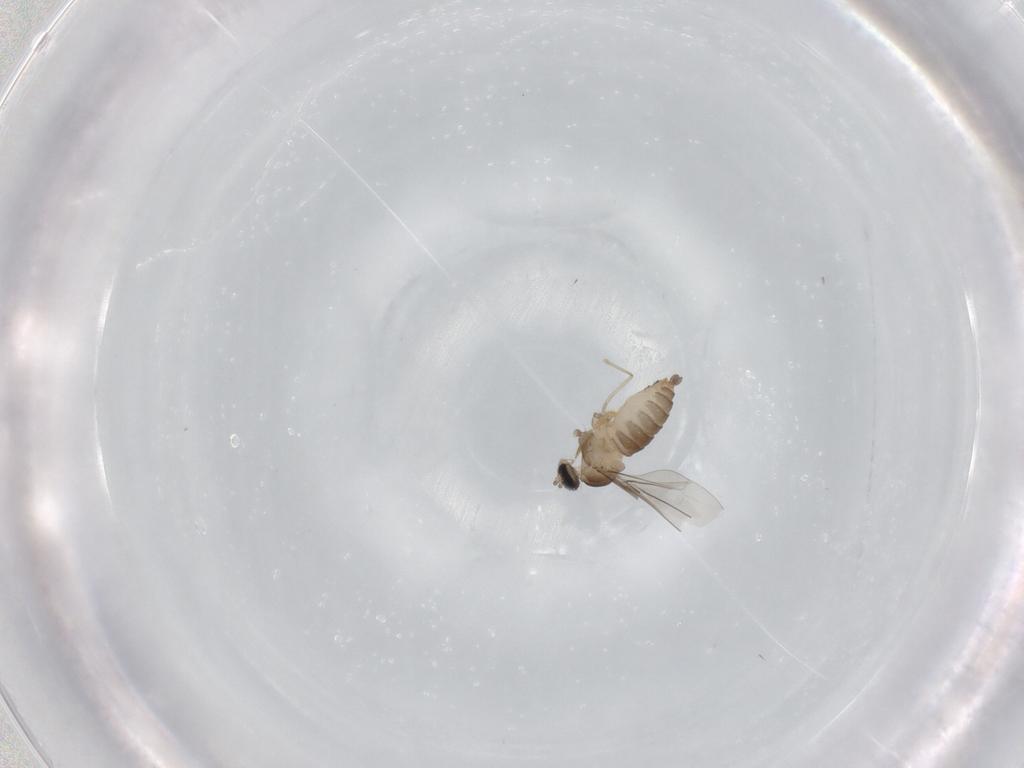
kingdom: Animalia
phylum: Arthropoda
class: Insecta
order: Diptera
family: Cecidomyiidae
